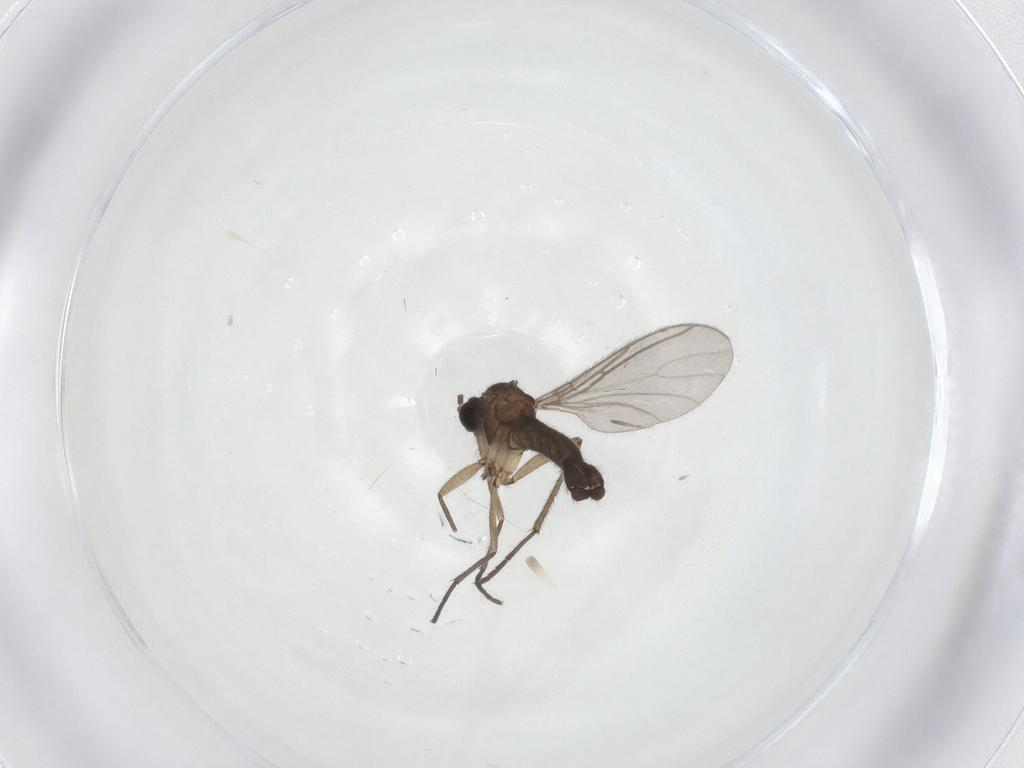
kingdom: Animalia
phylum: Arthropoda
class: Insecta
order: Diptera
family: Sciaridae
